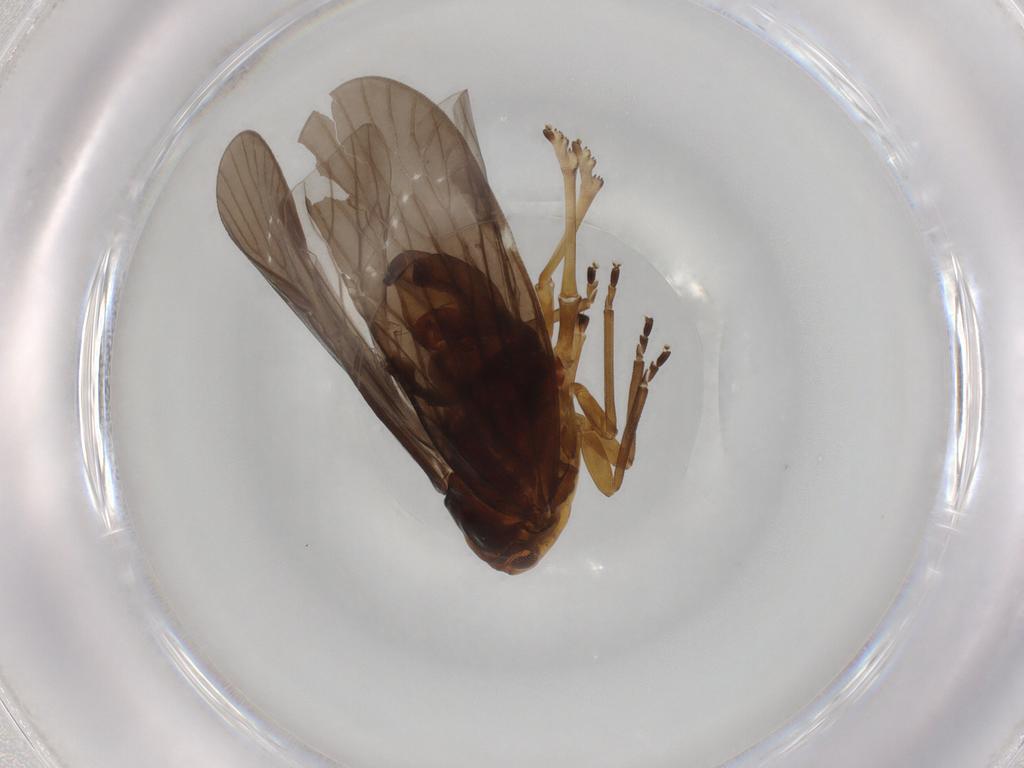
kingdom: Animalia
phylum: Arthropoda
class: Insecta
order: Hemiptera
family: Derbidae
